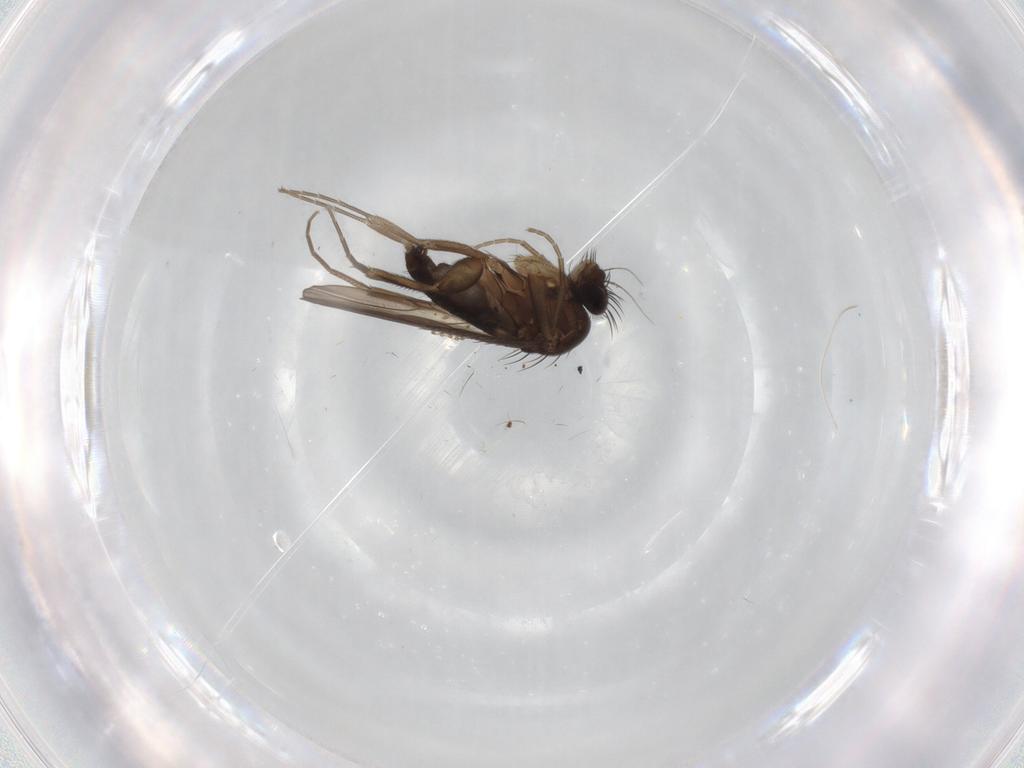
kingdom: Animalia
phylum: Arthropoda
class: Insecta
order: Diptera
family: Phoridae
